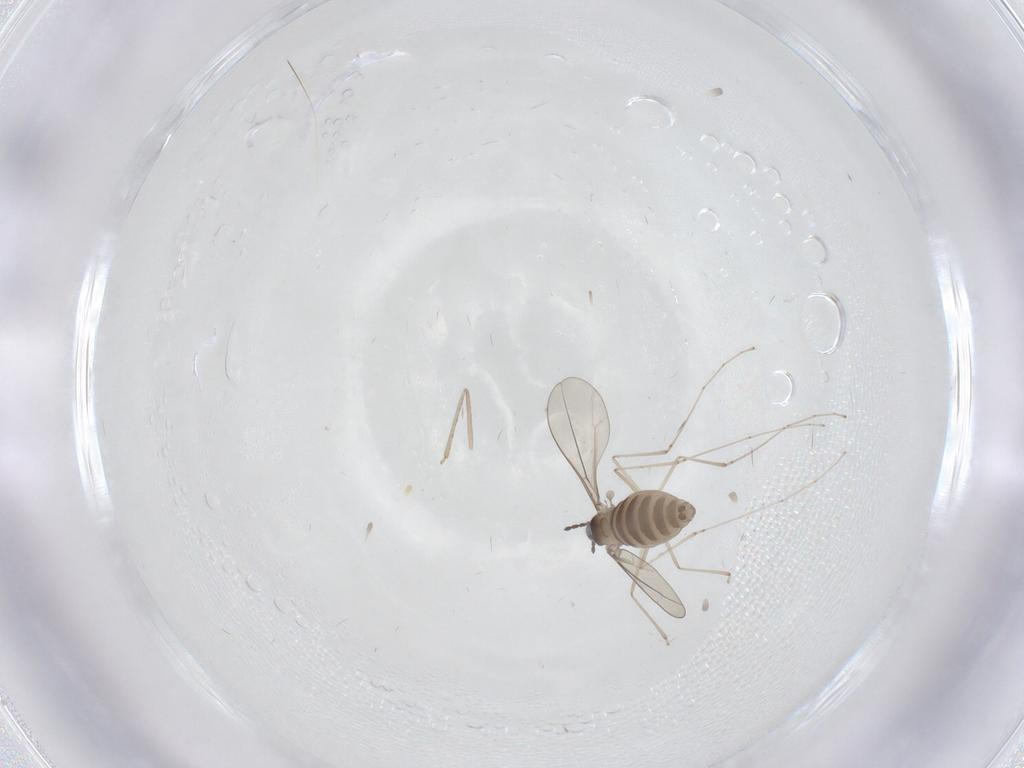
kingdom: Animalia
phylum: Arthropoda
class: Insecta
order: Diptera
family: Cecidomyiidae
